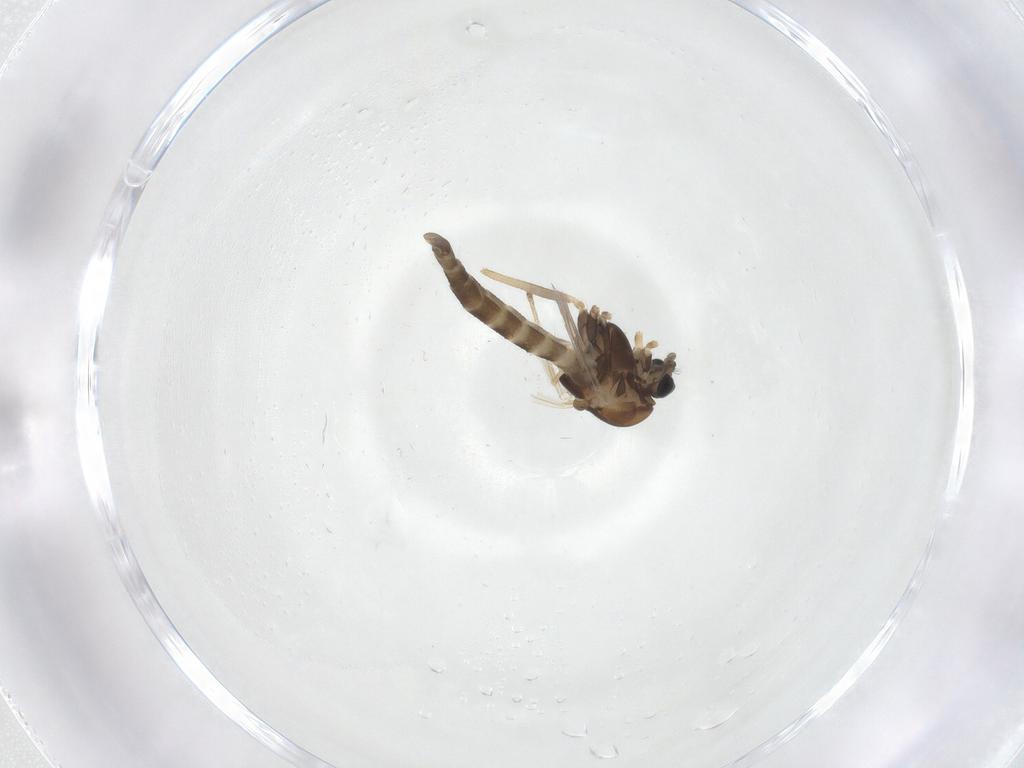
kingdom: Animalia
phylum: Arthropoda
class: Insecta
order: Diptera
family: Chironomidae
